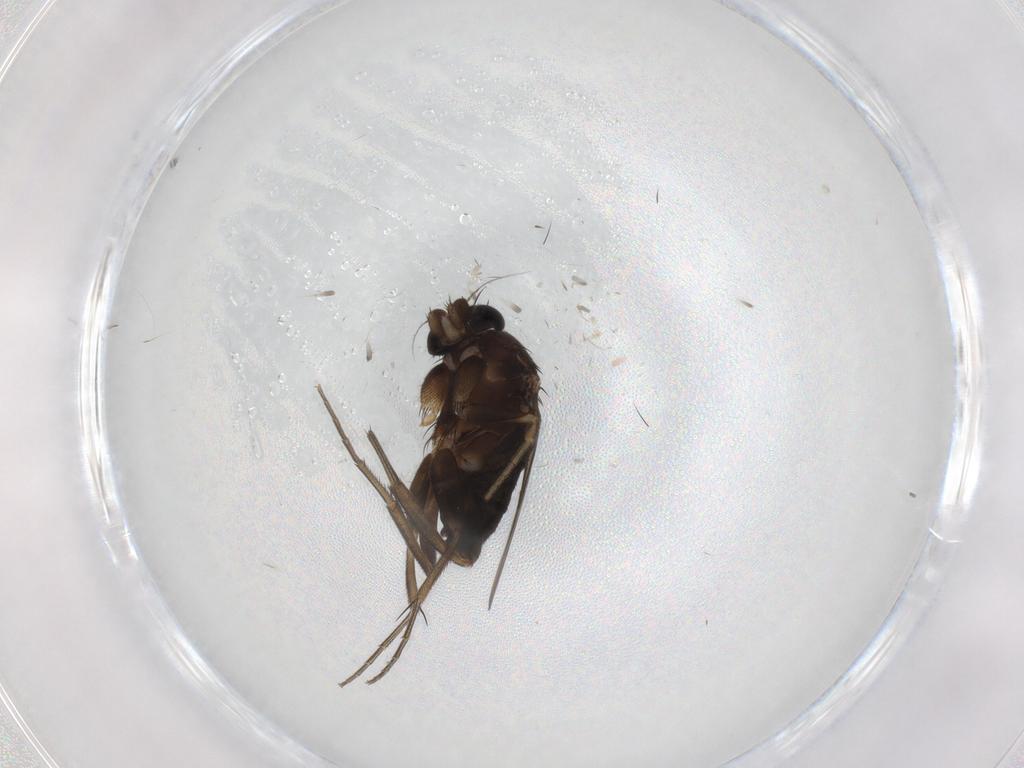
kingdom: Animalia
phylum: Arthropoda
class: Insecta
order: Diptera
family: Phoridae
